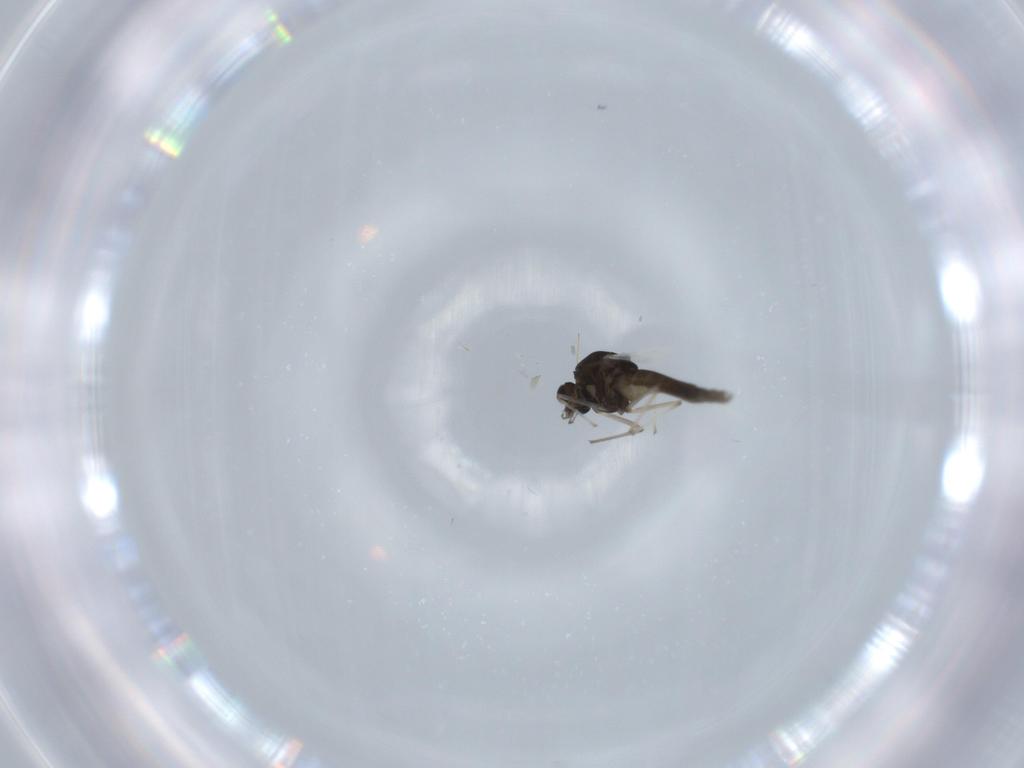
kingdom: Animalia
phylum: Arthropoda
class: Insecta
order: Diptera
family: Chironomidae
